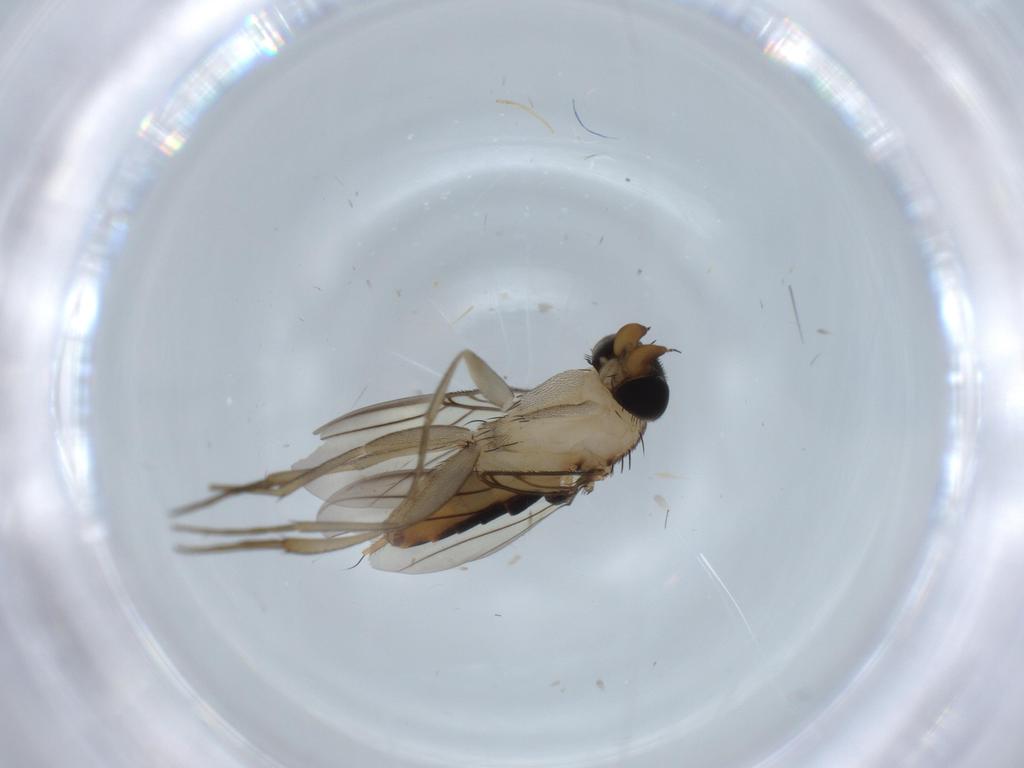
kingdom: Animalia
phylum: Arthropoda
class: Insecta
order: Diptera
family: Phoridae
